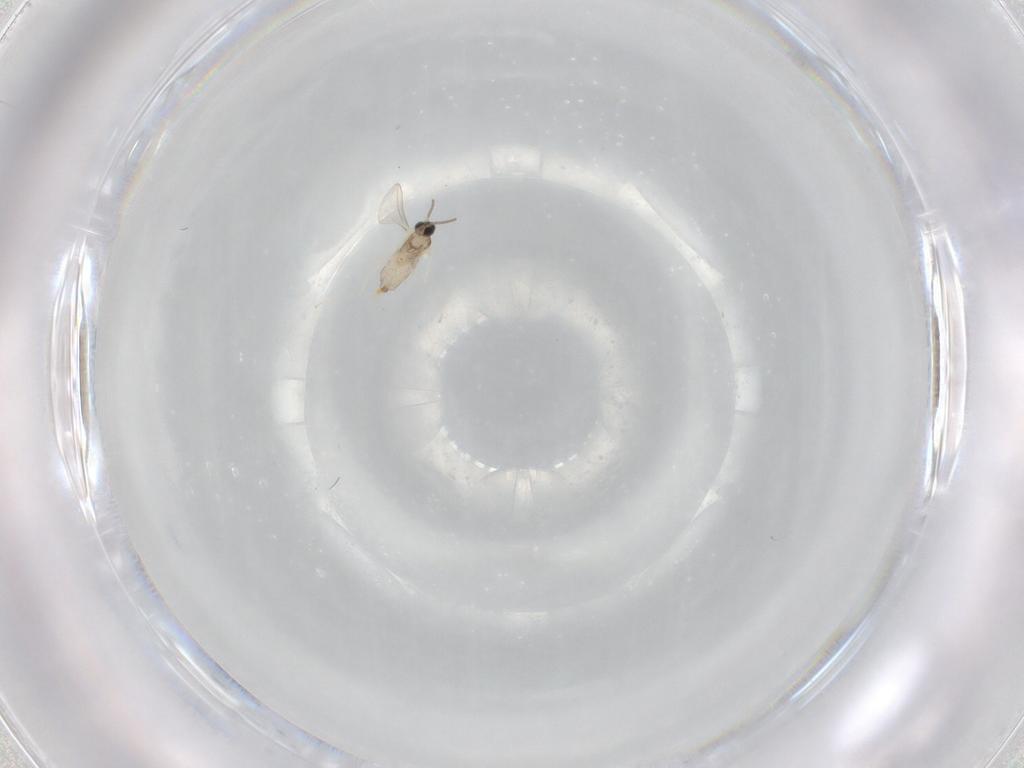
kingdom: Animalia
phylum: Arthropoda
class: Insecta
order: Diptera
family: Cecidomyiidae
